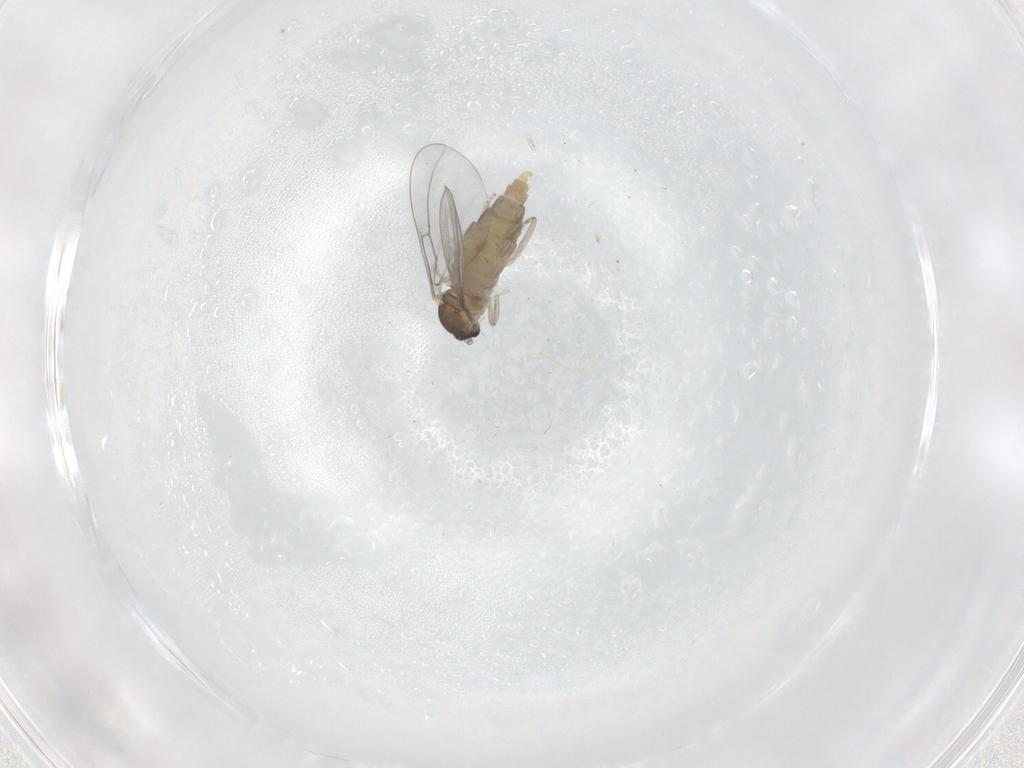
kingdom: Animalia
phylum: Arthropoda
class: Insecta
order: Diptera
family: Cecidomyiidae
